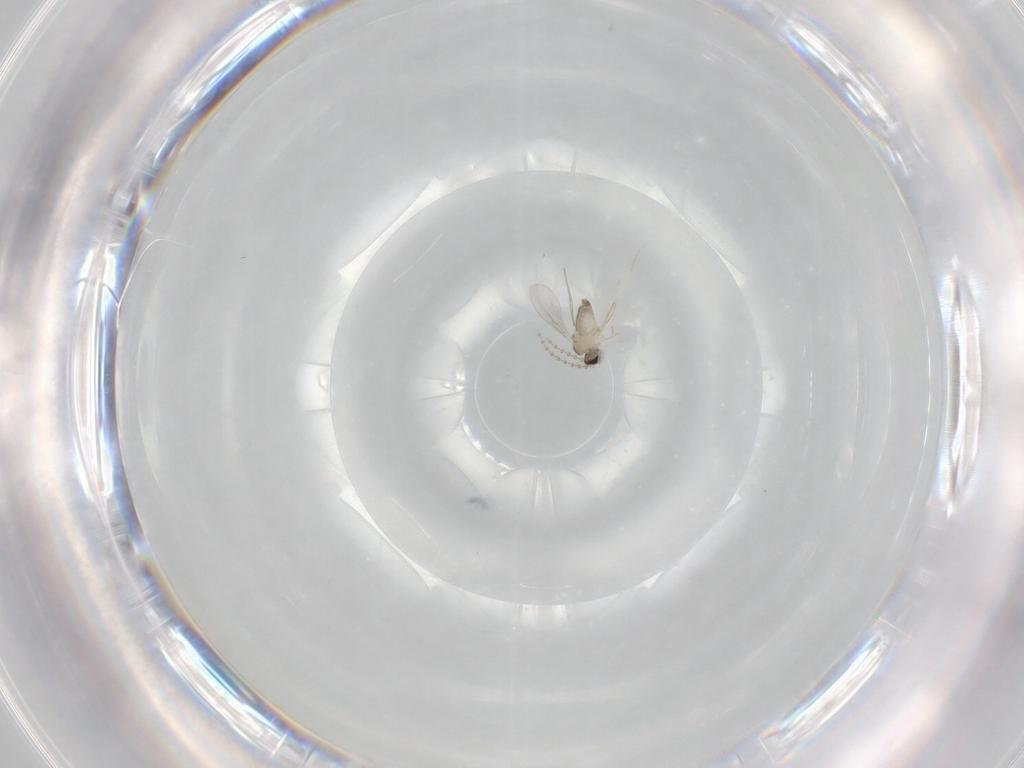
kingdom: Animalia
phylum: Arthropoda
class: Insecta
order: Diptera
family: Cecidomyiidae
